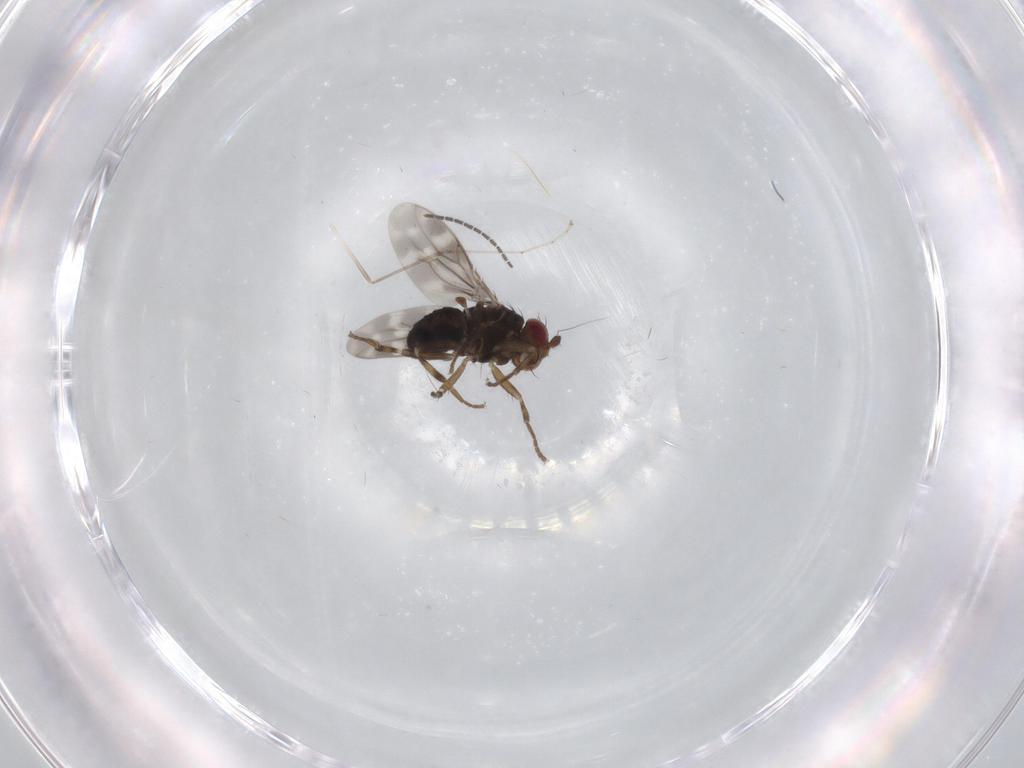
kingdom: Animalia
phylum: Arthropoda
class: Insecta
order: Diptera
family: Sphaeroceridae
